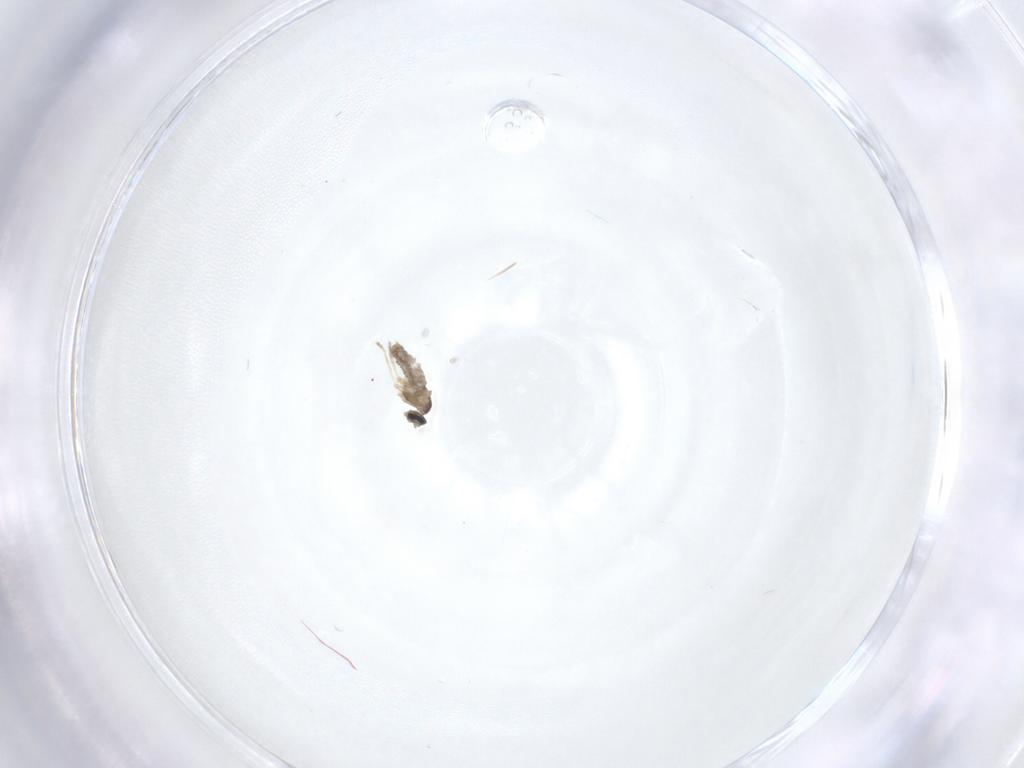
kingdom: Animalia
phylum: Arthropoda
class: Insecta
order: Diptera
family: Cecidomyiidae
